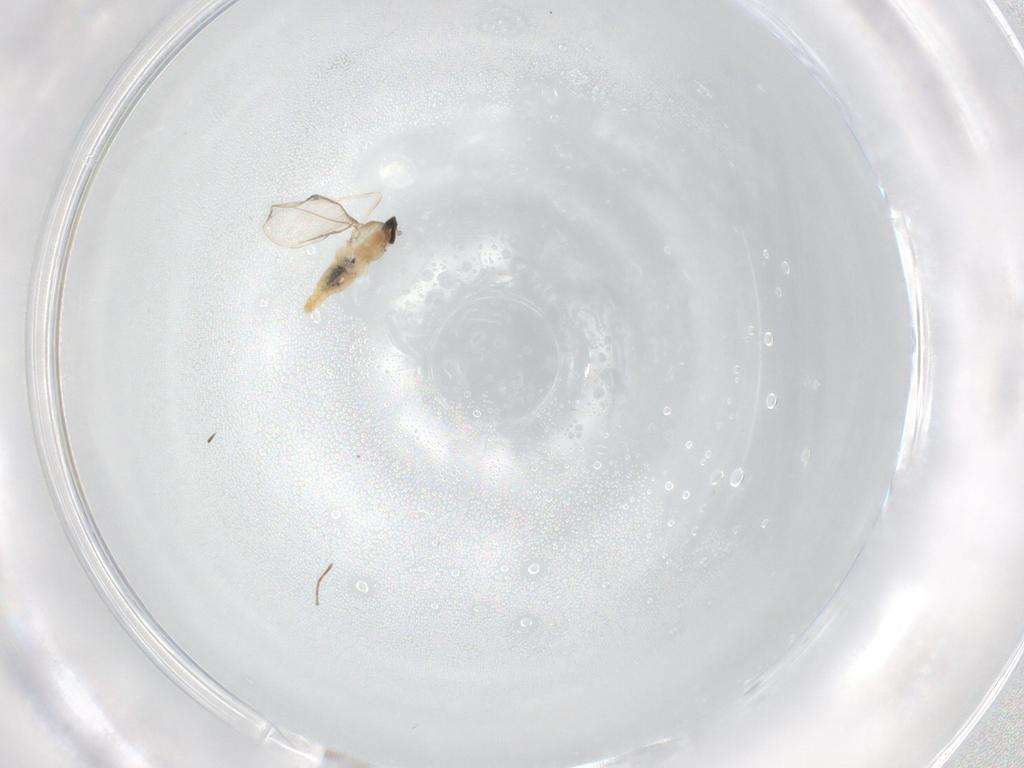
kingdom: Animalia
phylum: Arthropoda
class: Insecta
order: Diptera
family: Cecidomyiidae
